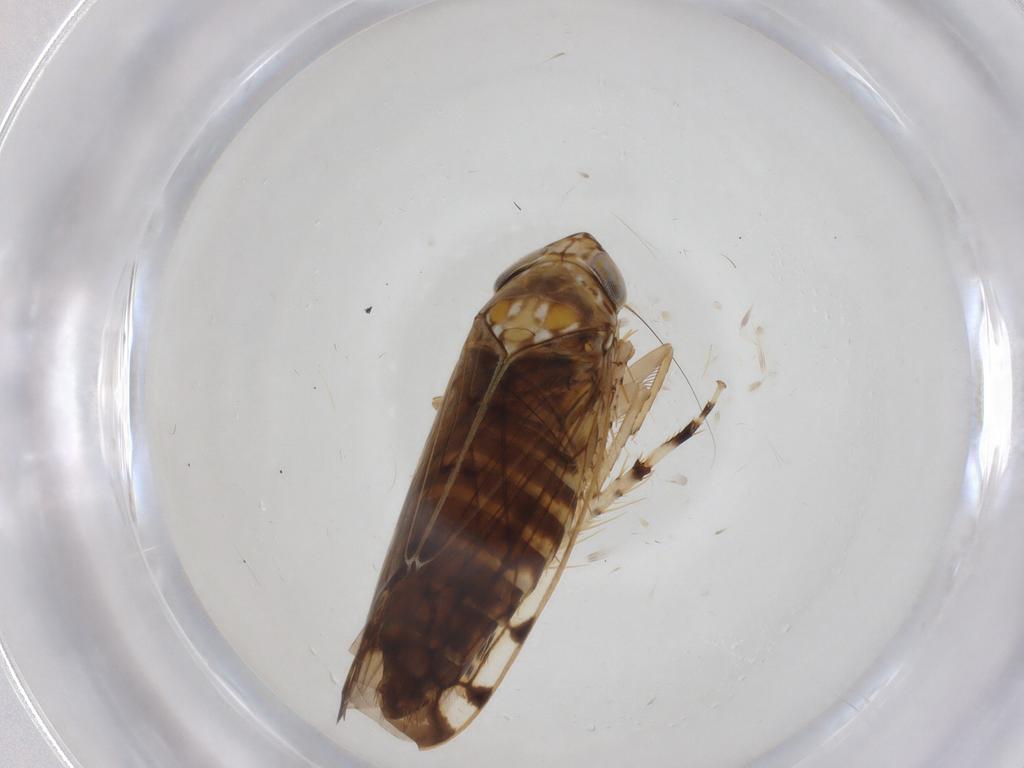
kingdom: Animalia
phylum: Arthropoda
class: Insecta
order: Hemiptera
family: Cicadellidae
